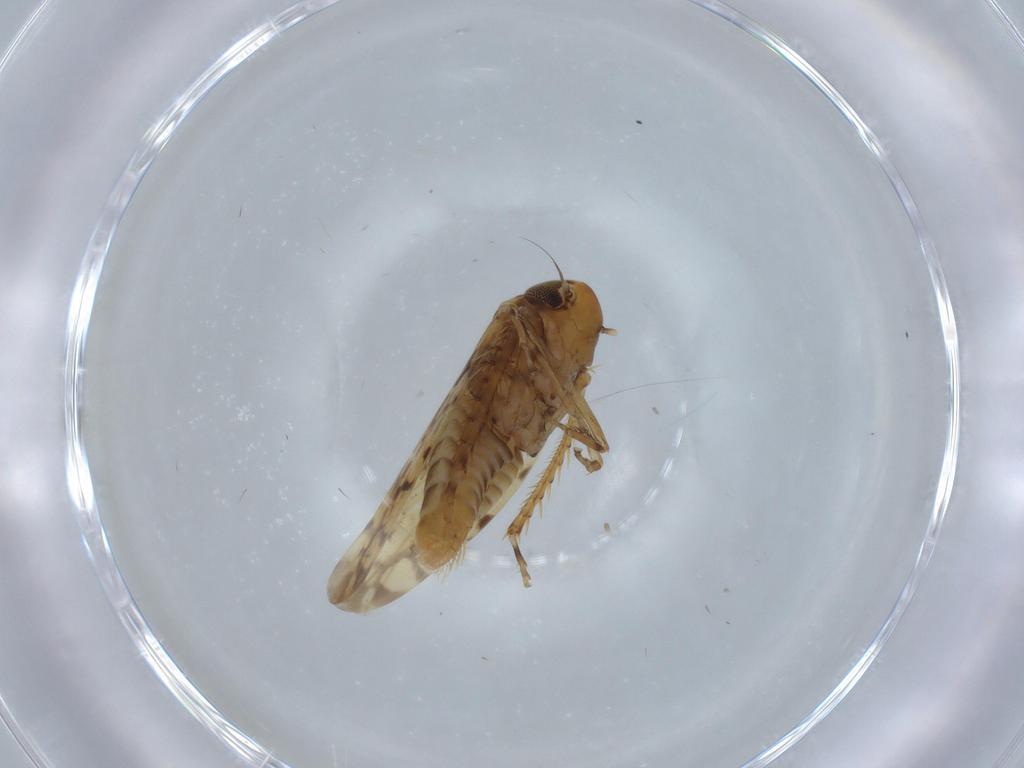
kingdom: Animalia
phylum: Arthropoda
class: Insecta
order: Hemiptera
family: Cicadellidae
